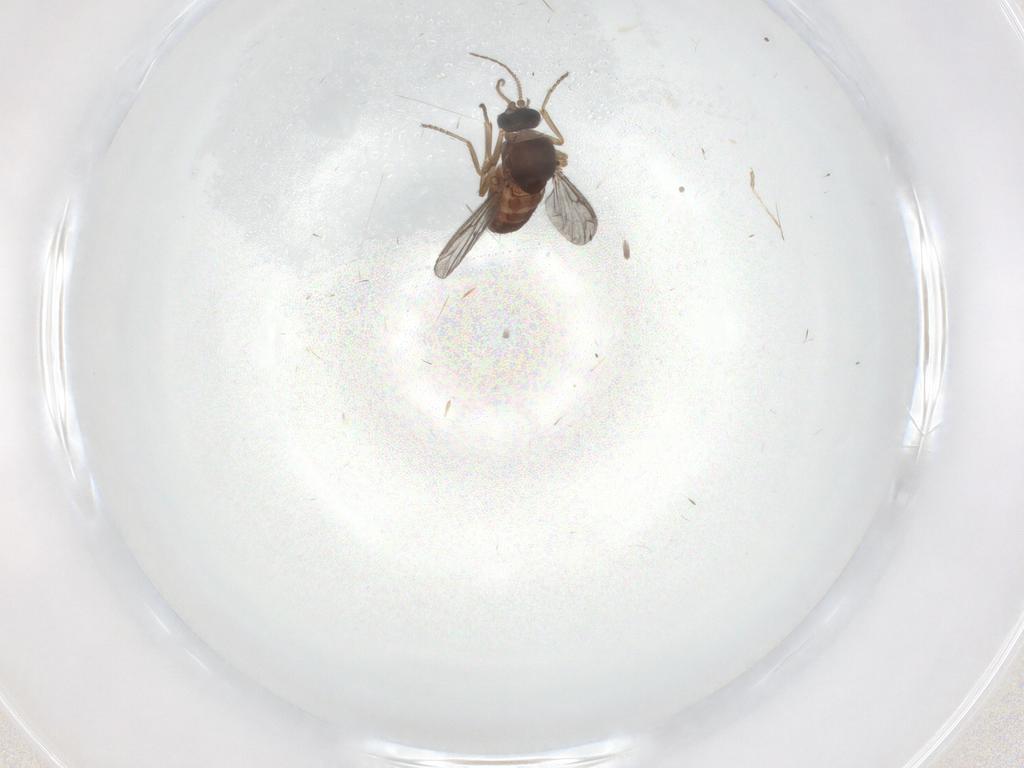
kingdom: Animalia
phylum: Arthropoda
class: Insecta
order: Diptera
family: Ceratopogonidae
